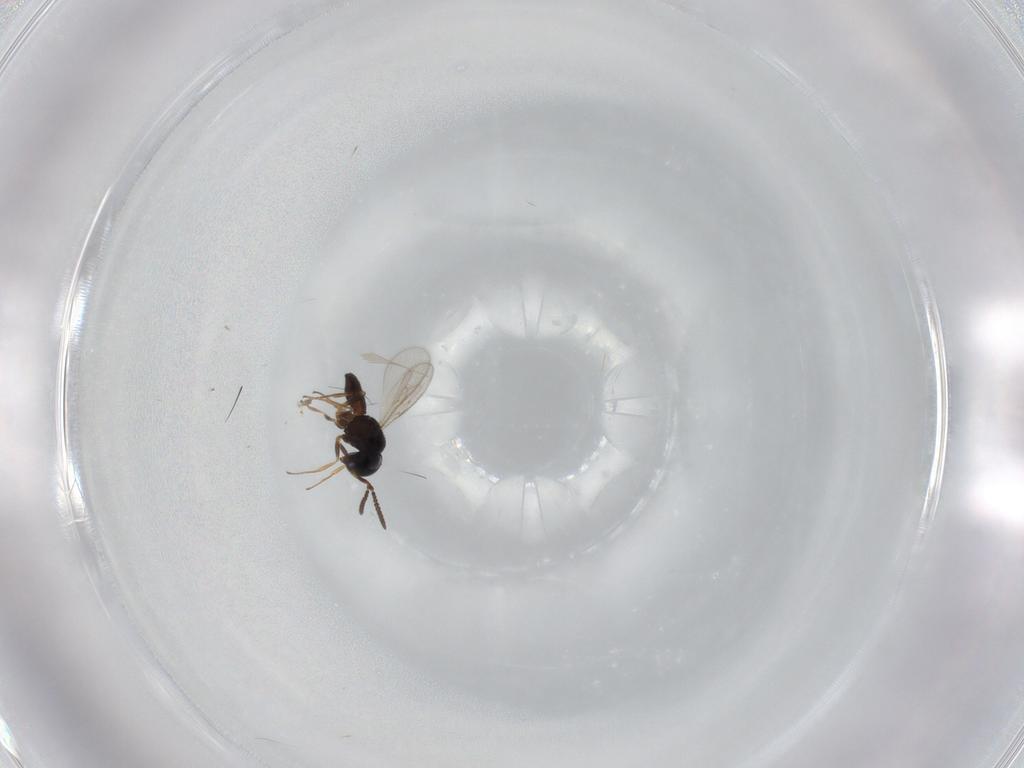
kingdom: Animalia
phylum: Arthropoda
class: Insecta
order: Hymenoptera
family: Scelionidae
